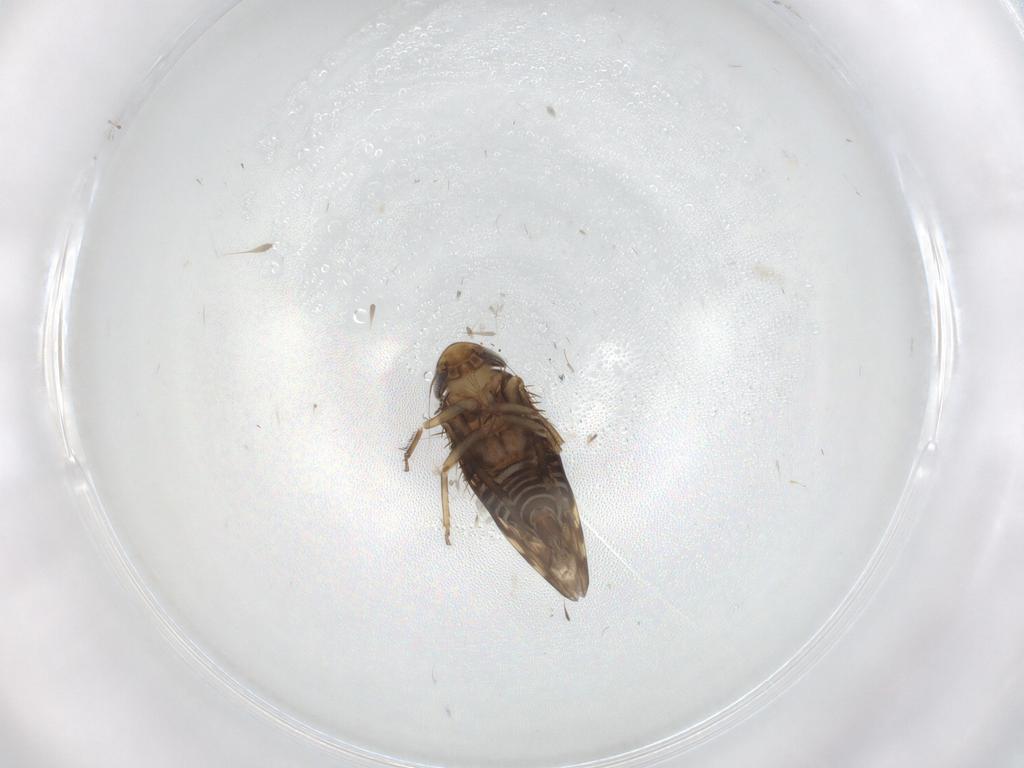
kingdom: Animalia
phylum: Arthropoda
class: Insecta
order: Hemiptera
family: Cicadellidae
